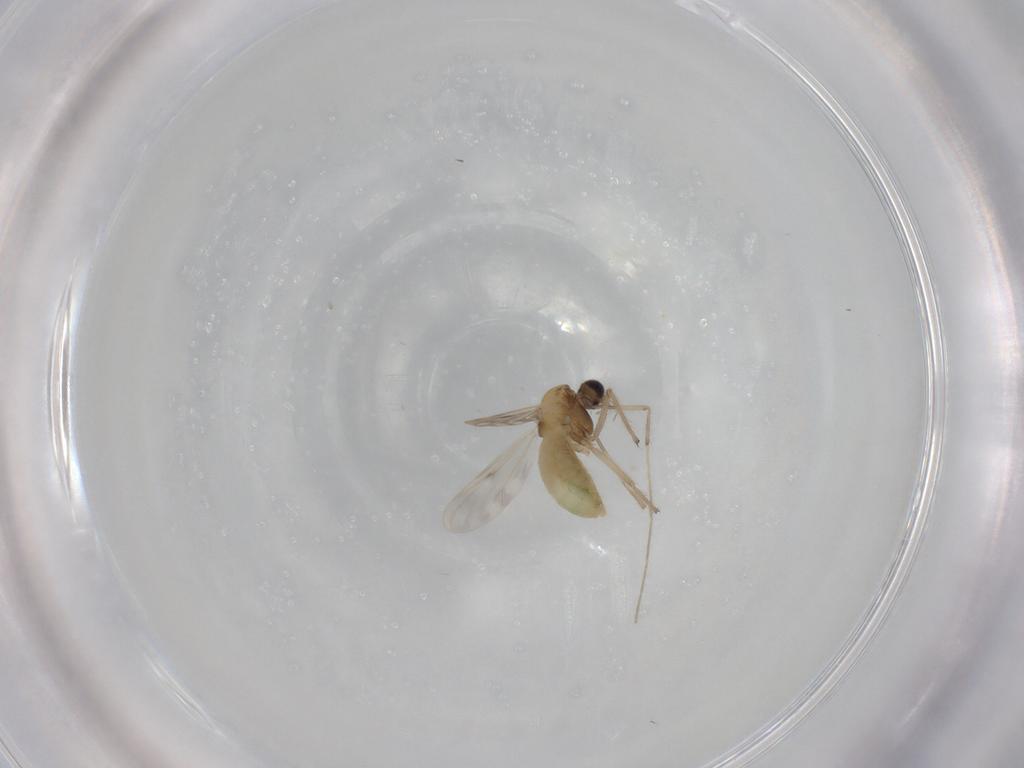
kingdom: Animalia
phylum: Arthropoda
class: Insecta
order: Diptera
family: Chironomidae
